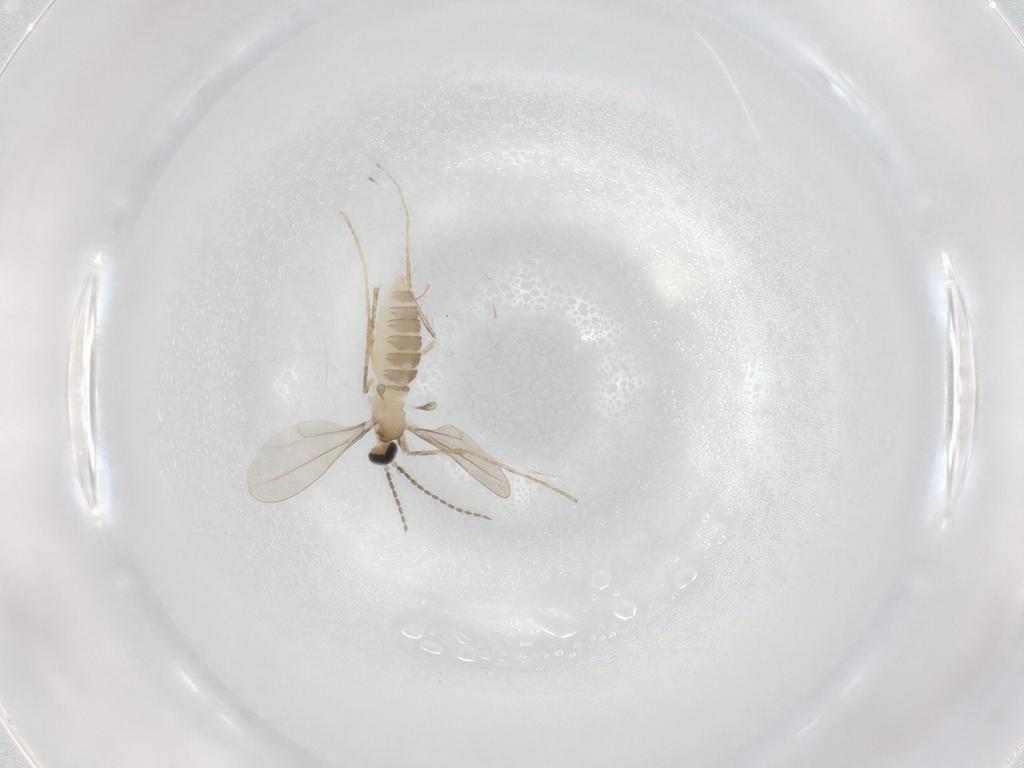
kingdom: Animalia
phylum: Arthropoda
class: Insecta
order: Diptera
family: Cecidomyiidae
